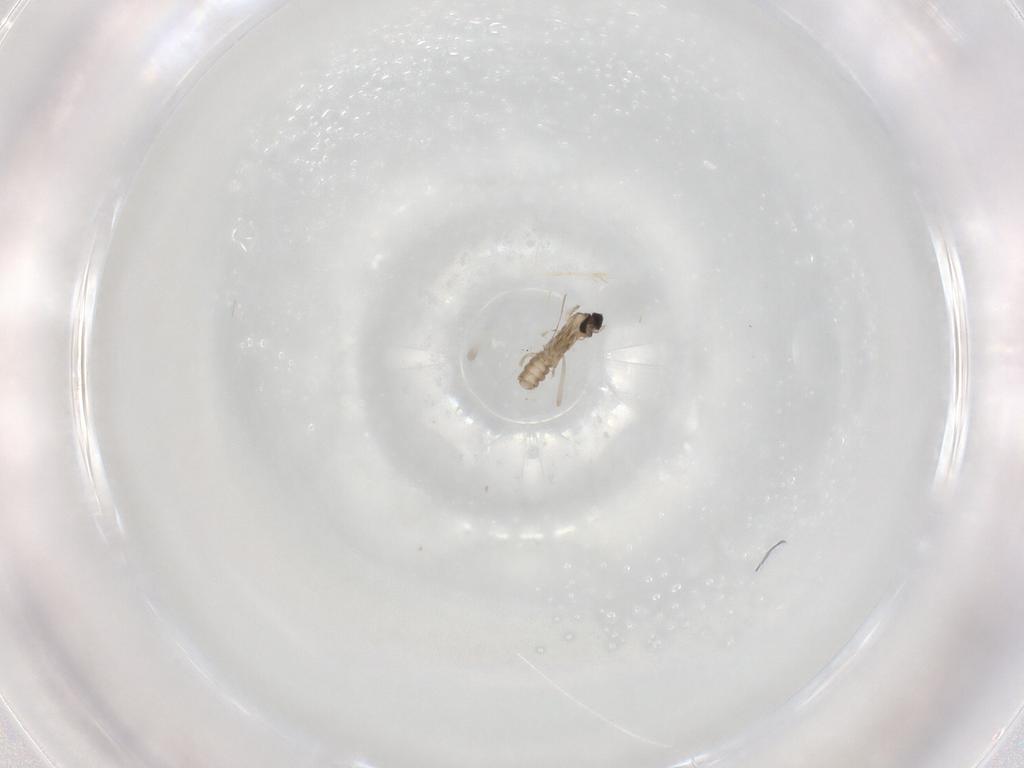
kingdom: Animalia
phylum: Arthropoda
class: Insecta
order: Diptera
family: Cecidomyiidae
